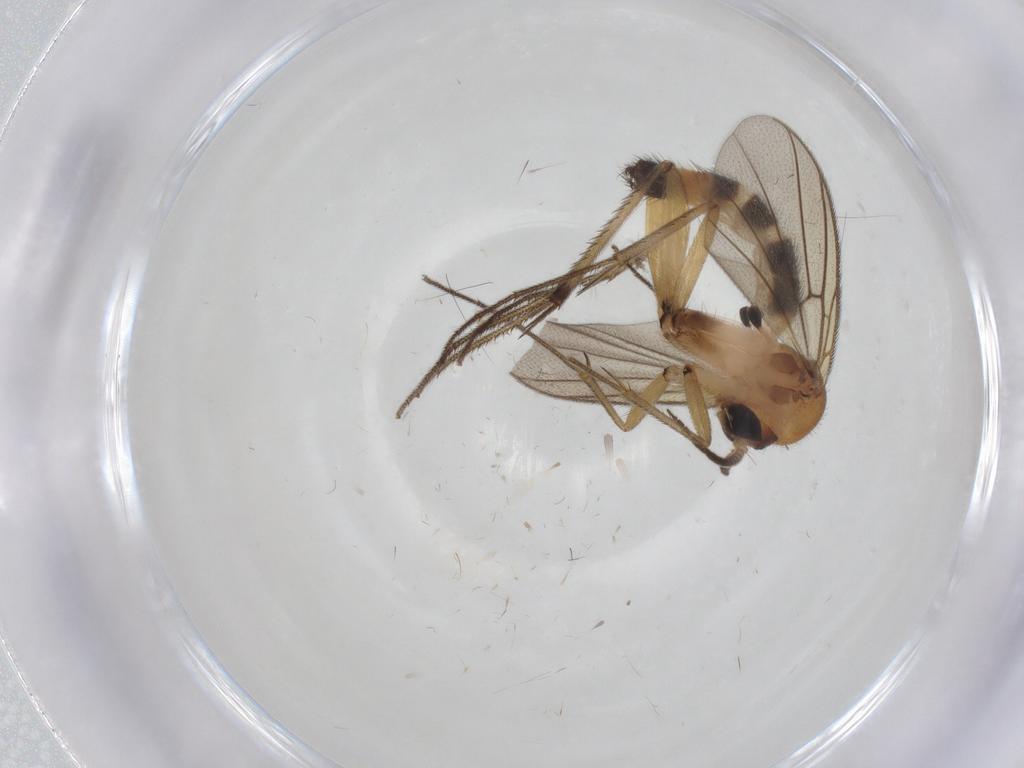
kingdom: Animalia
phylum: Arthropoda
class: Insecta
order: Diptera
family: Mycetophilidae
